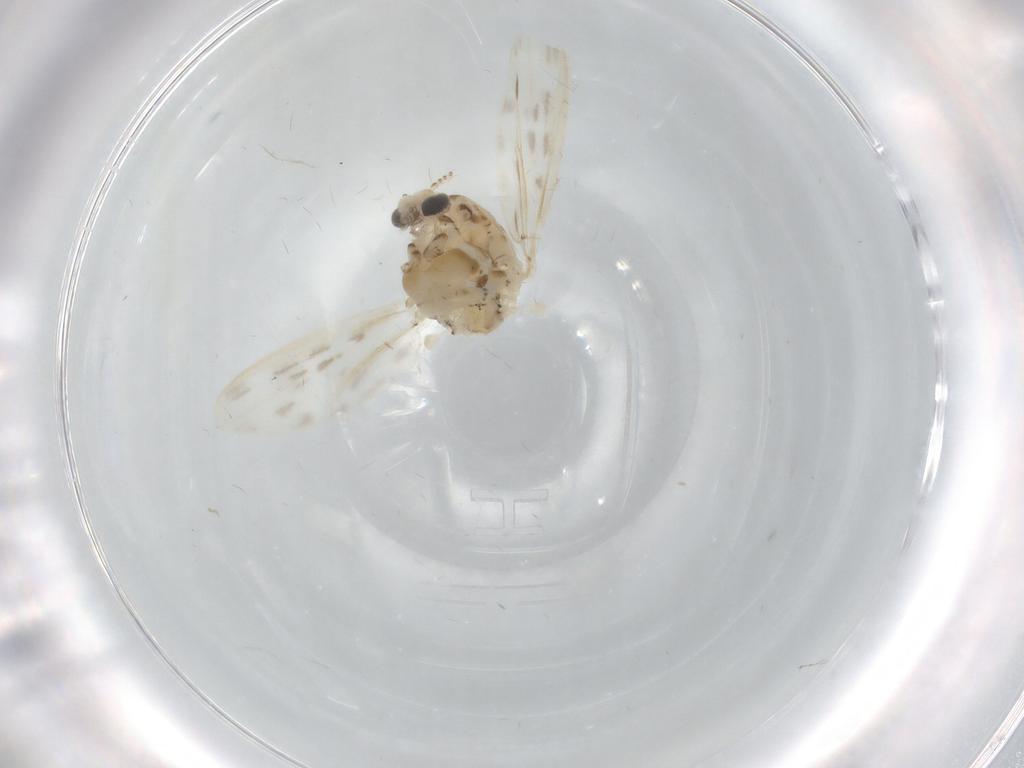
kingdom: Animalia
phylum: Arthropoda
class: Insecta
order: Diptera
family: Chaoboridae
